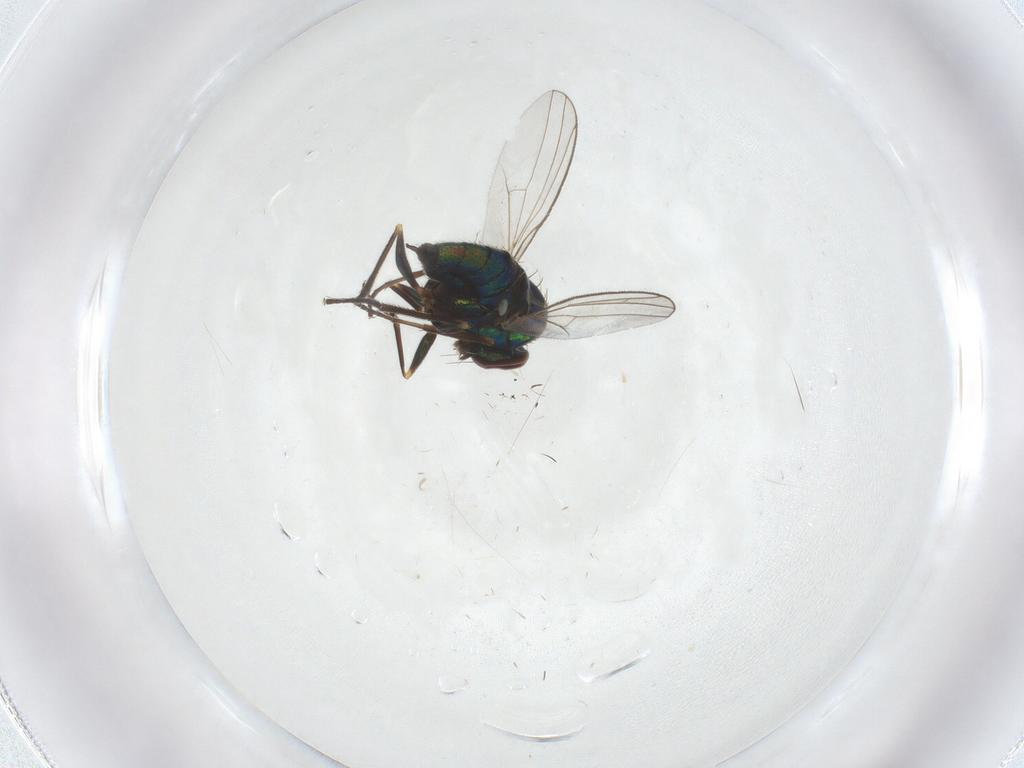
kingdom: Animalia
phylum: Arthropoda
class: Insecta
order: Diptera
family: Dolichopodidae
